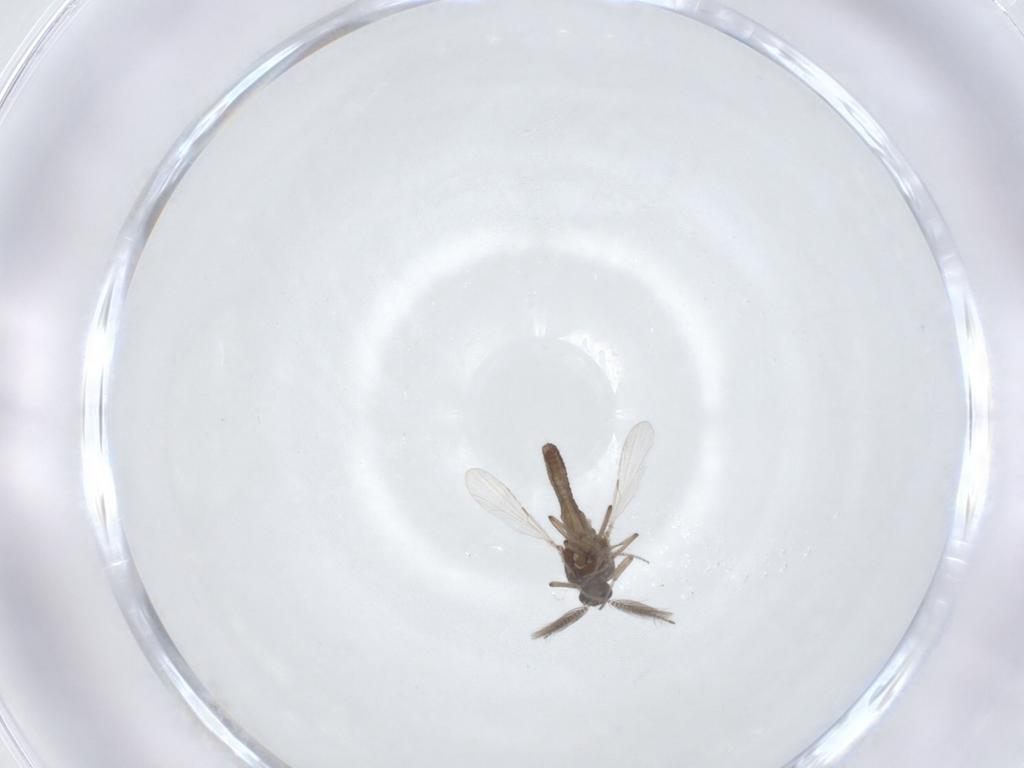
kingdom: Animalia
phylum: Arthropoda
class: Insecta
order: Diptera
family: Ceratopogonidae
